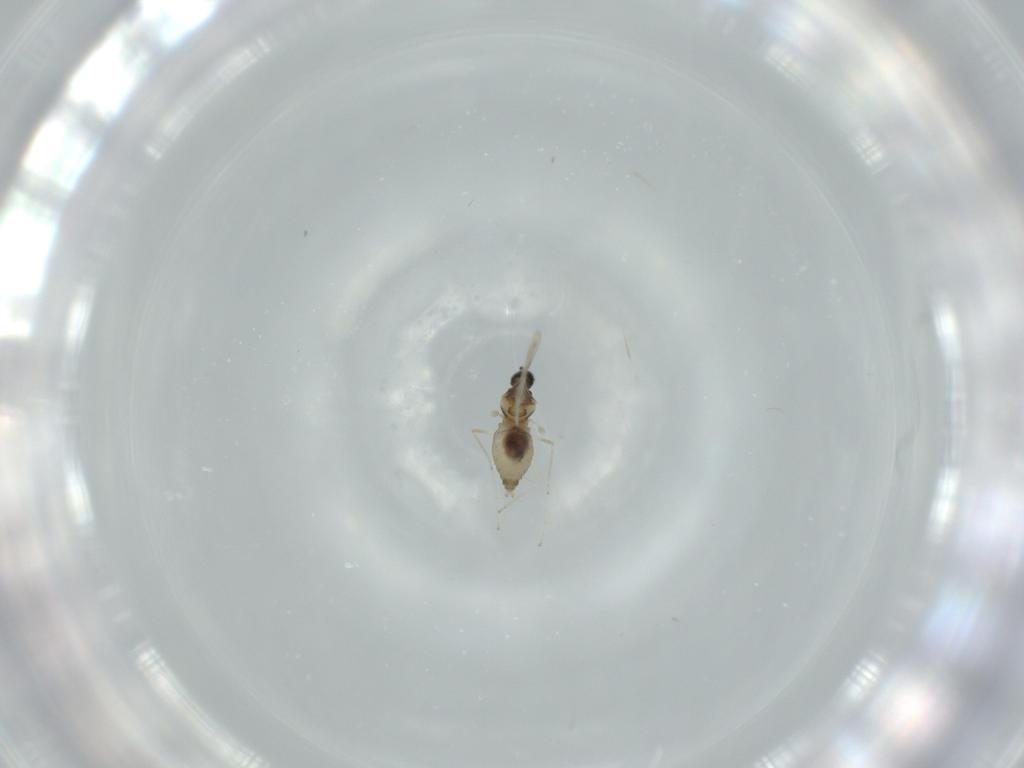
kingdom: Animalia
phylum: Arthropoda
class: Insecta
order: Diptera
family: Cecidomyiidae
